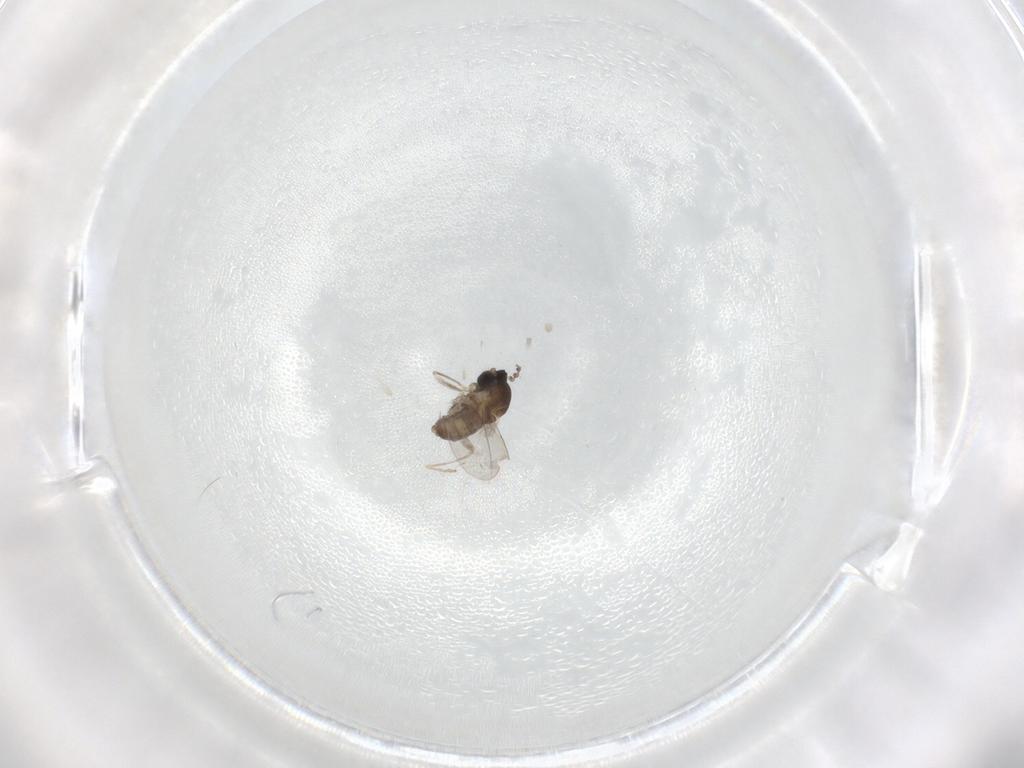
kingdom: Animalia
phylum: Arthropoda
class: Insecta
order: Diptera
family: Cecidomyiidae
